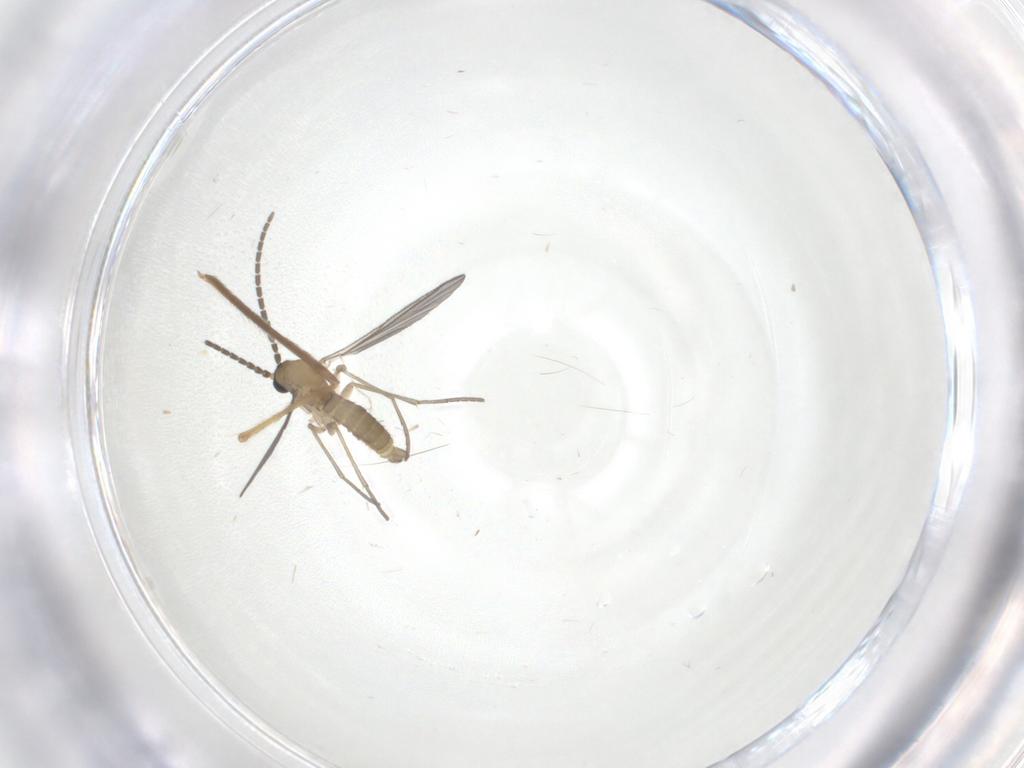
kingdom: Animalia
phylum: Arthropoda
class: Insecta
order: Diptera
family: Sciaridae
